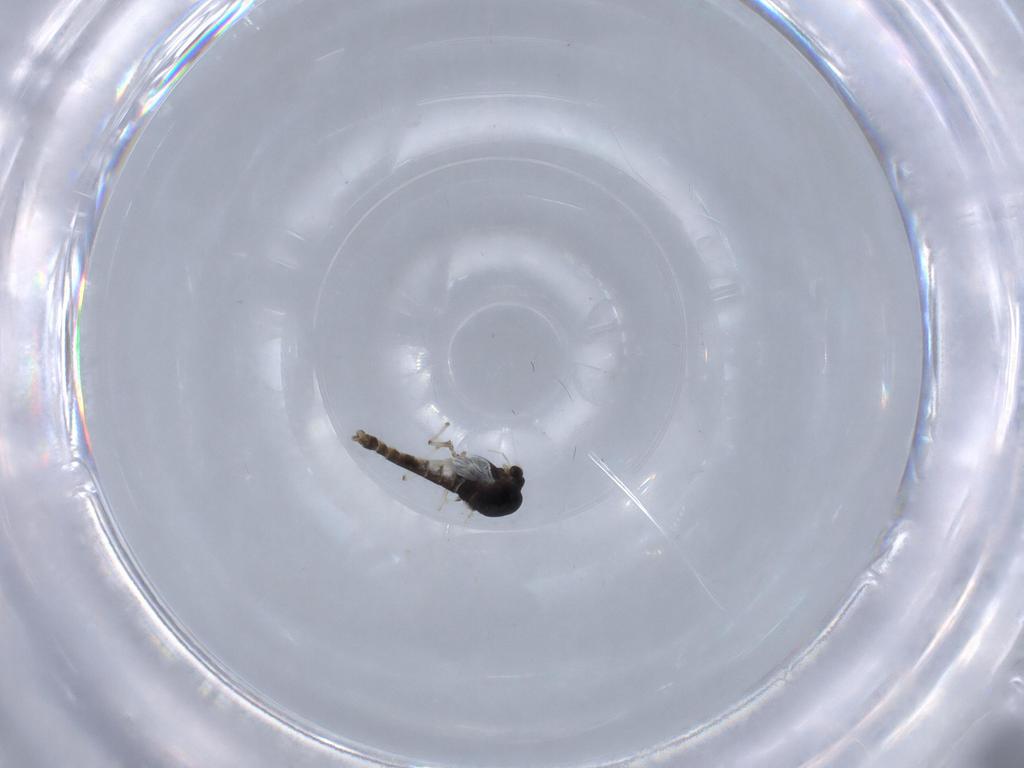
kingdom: Animalia
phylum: Arthropoda
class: Insecta
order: Diptera
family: Chironomidae
